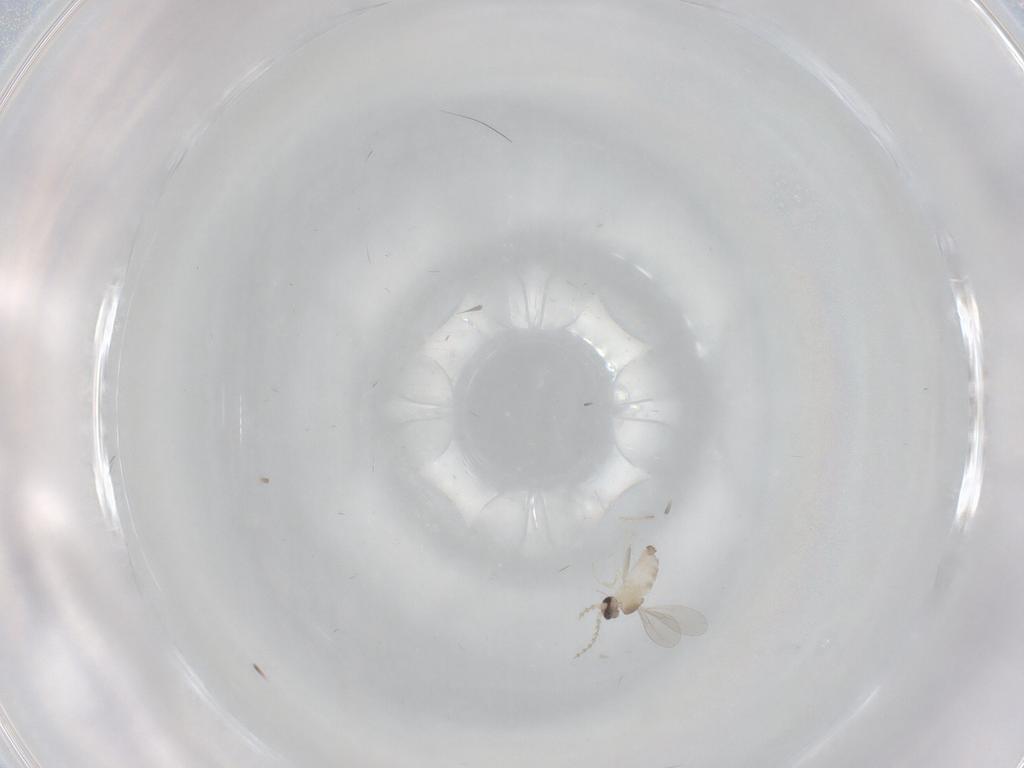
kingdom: Animalia
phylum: Arthropoda
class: Insecta
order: Diptera
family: Cecidomyiidae
